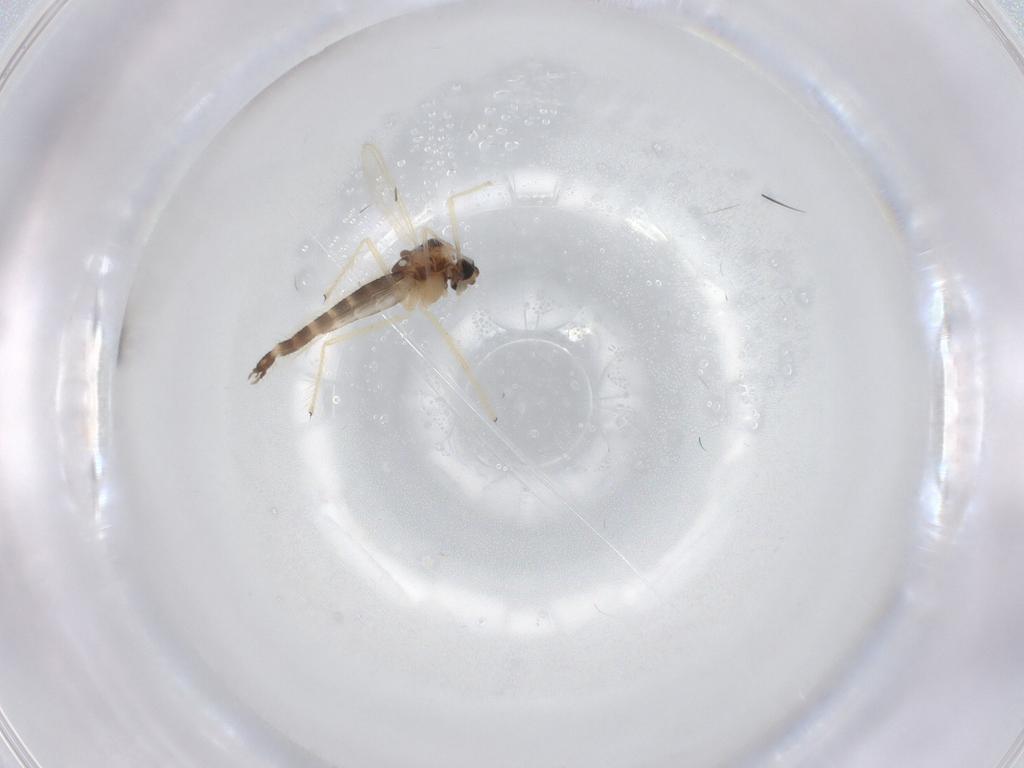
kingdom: Animalia
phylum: Arthropoda
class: Insecta
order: Diptera
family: Chironomidae
